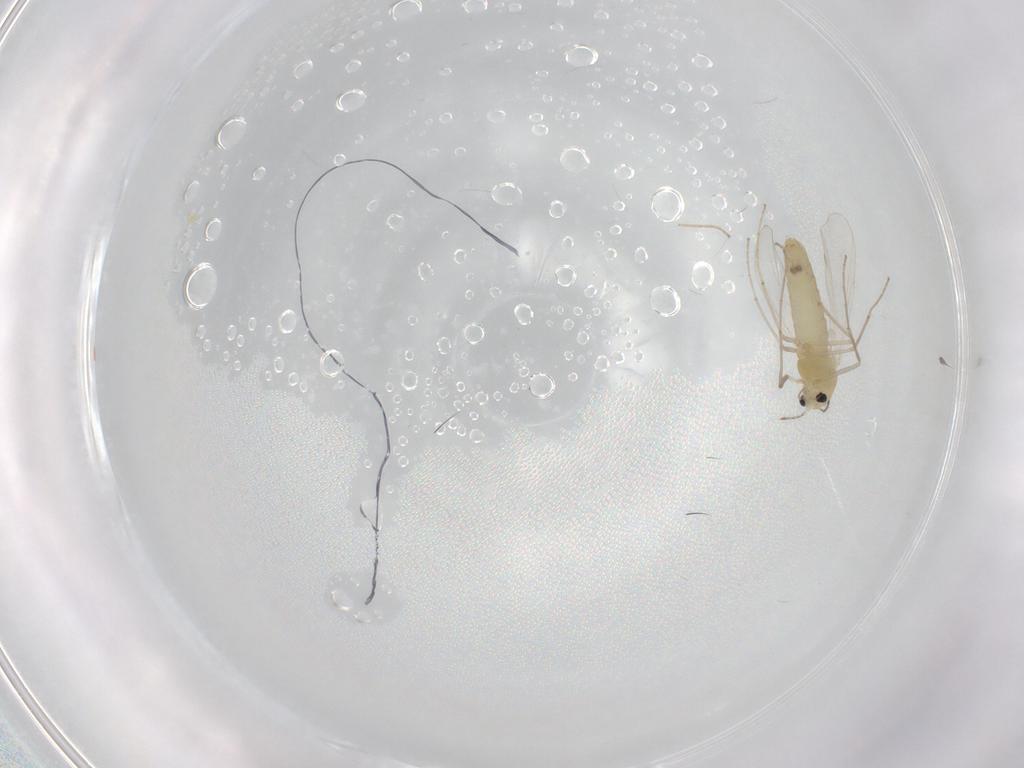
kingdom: Animalia
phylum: Arthropoda
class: Insecta
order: Diptera
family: Chironomidae
